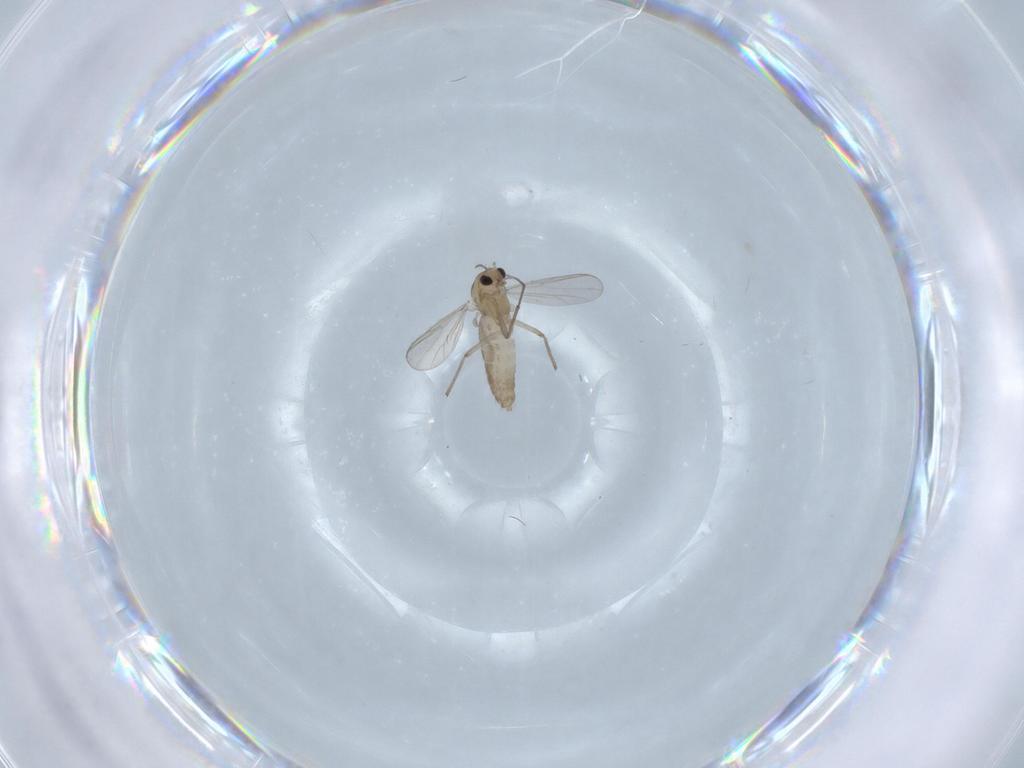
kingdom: Animalia
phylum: Arthropoda
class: Insecta
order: Diptera
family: Chironomidae
